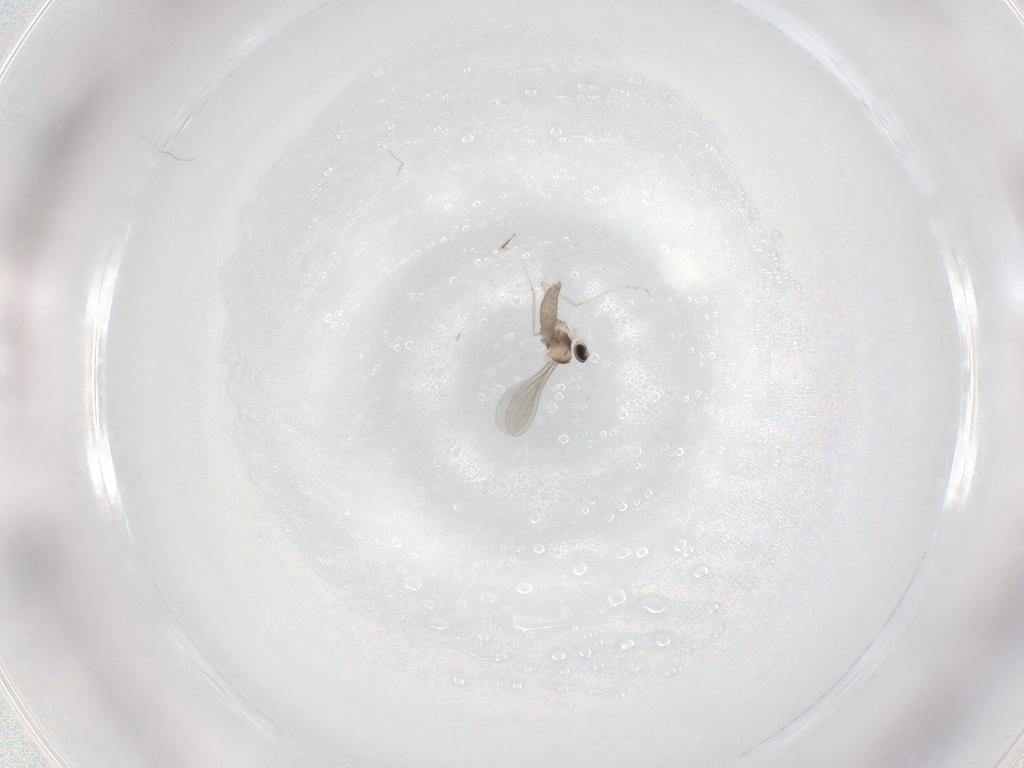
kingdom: Animalia
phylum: Arthropoda
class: Insecta
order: Diptera
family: Cecidomyiidae
